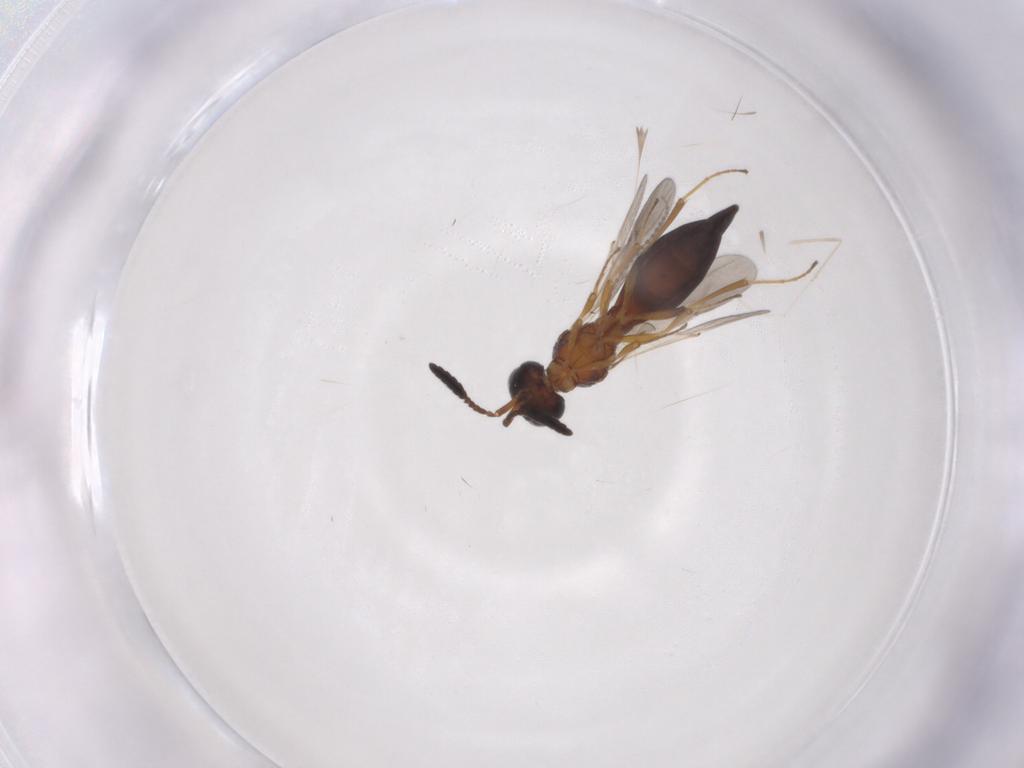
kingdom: Animalia
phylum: Arthropoda
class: Insecta
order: Hymenoptera
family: Scelionidae
